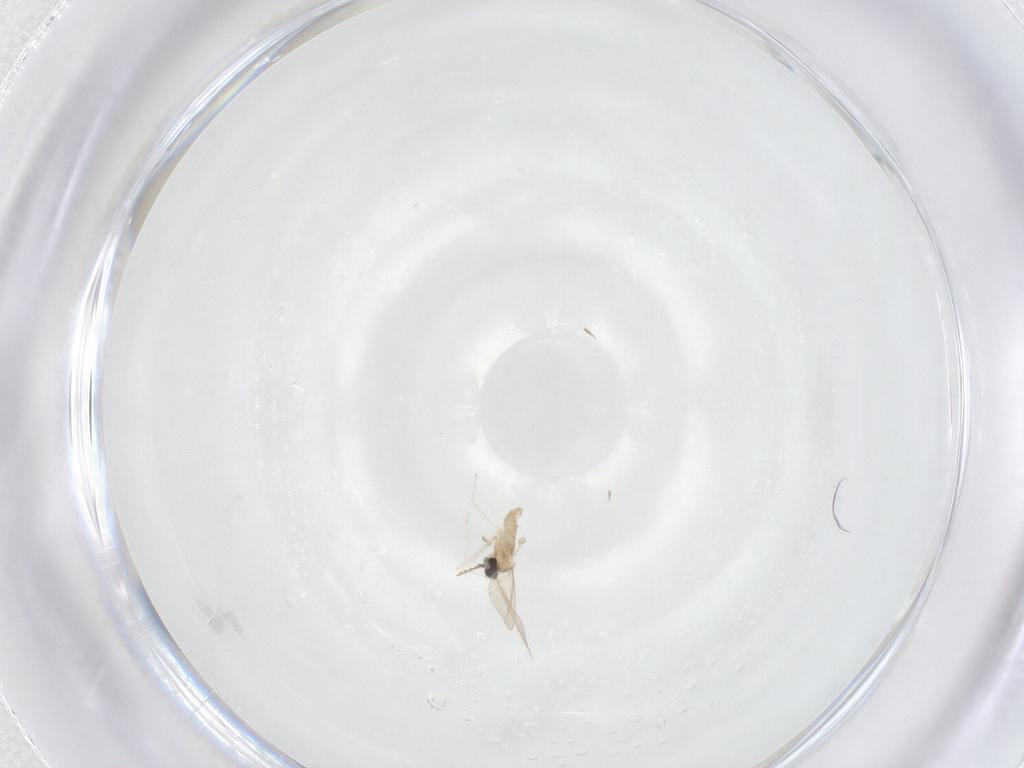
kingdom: Animalia
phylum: Arthropoda
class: Insecta
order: Diptera
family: Cecidomyiidae
